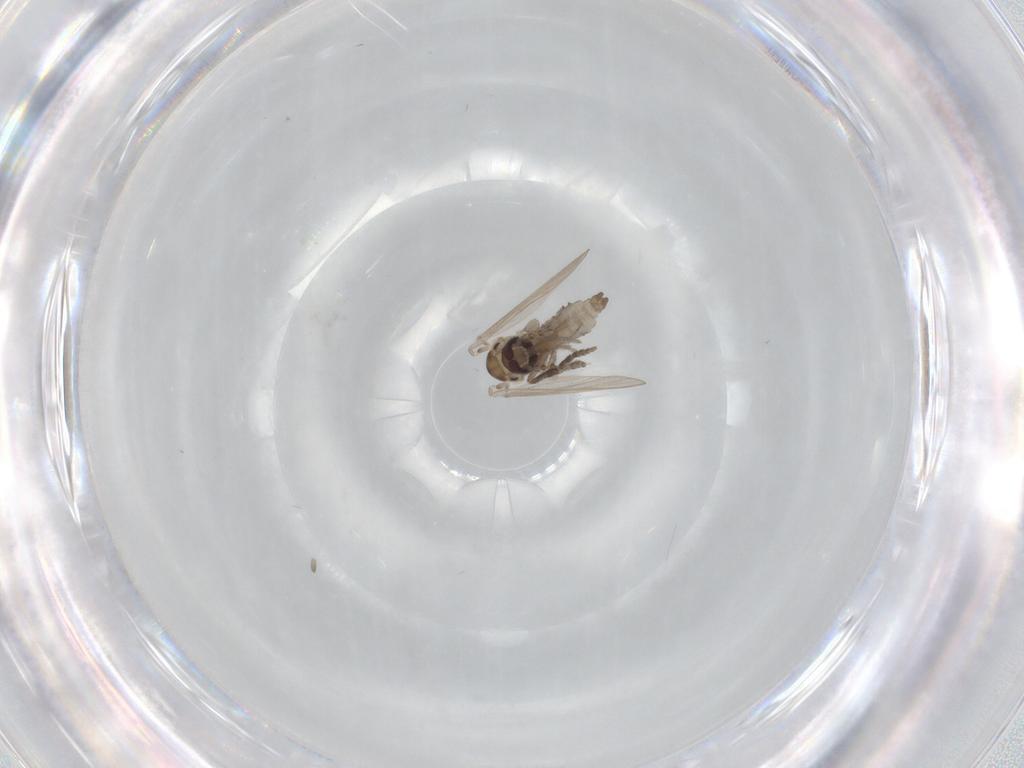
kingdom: Animalia
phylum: Arthropoda
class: Insecta
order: Diptera
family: Psychodidae
